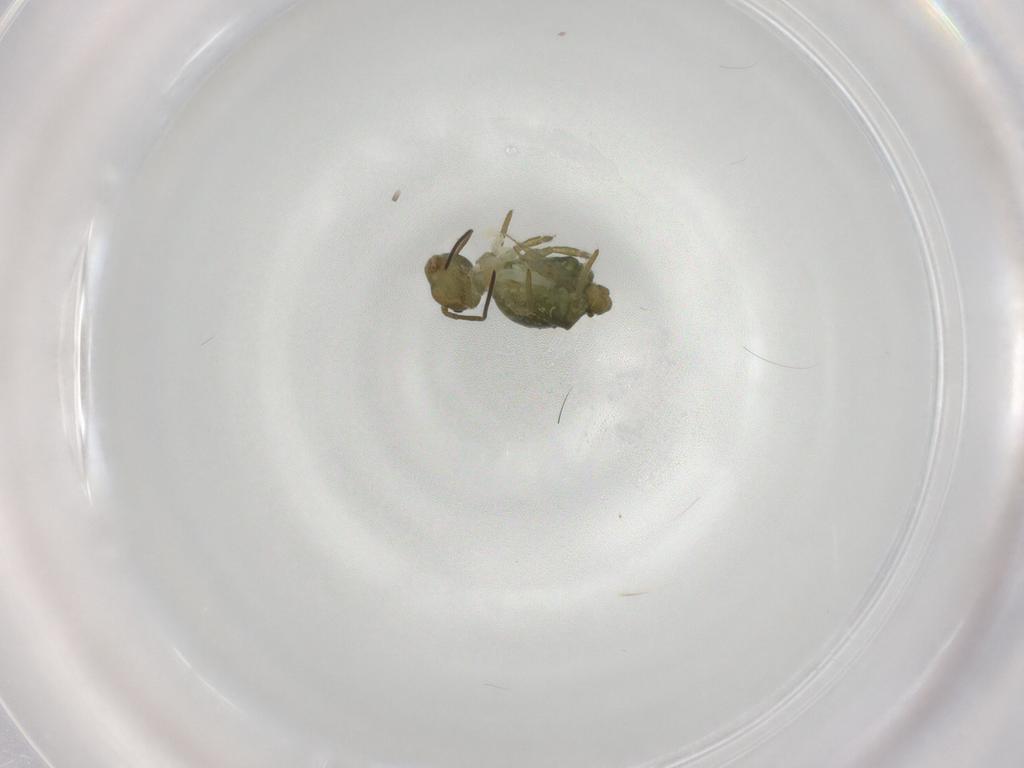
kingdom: Animalia
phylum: Arthropoda
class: Collembola
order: Symphypleona
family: Sminthuridae
